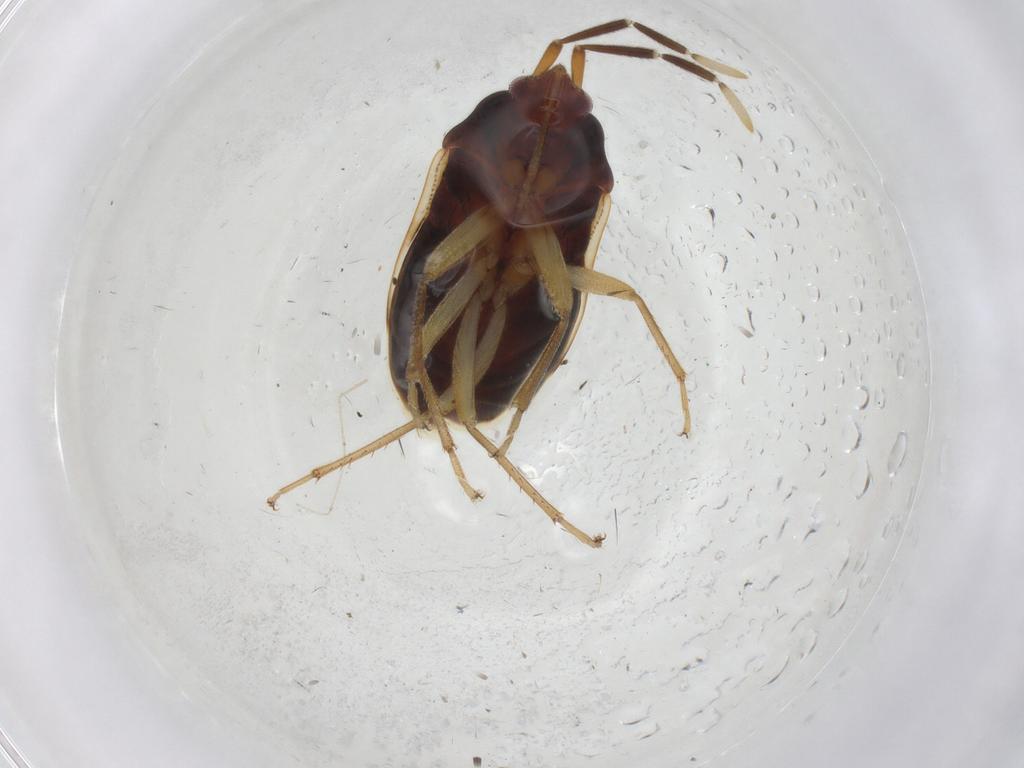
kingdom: Animalia
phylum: Arthropoda
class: Insecta
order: Hemiptera
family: Rhyparochromidae
